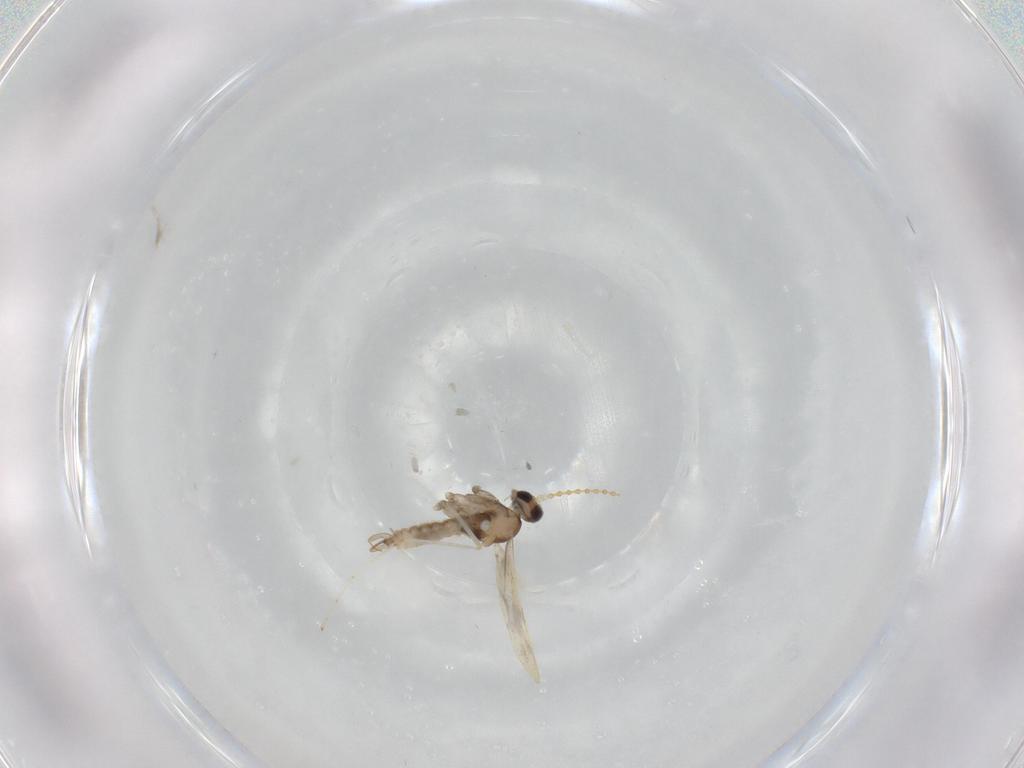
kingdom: Animalia
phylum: Arthropoda
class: Insecta
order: Diptera
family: Cecidomyiidae
